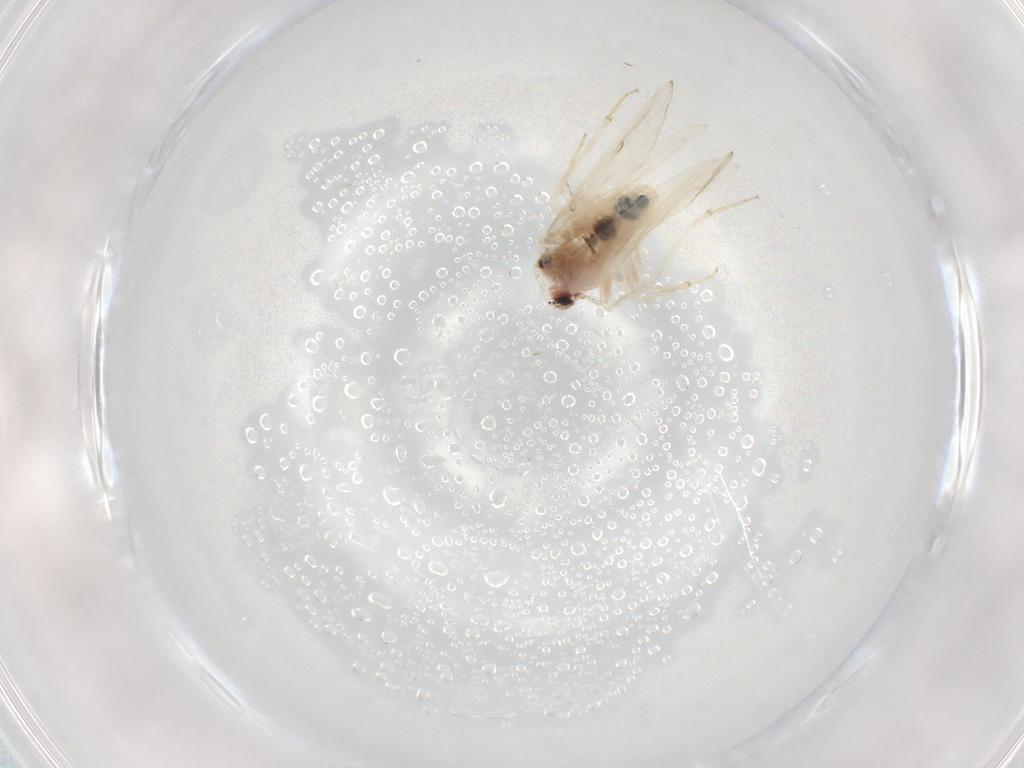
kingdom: Animalia
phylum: Arthropoda
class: Insecta
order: Psocodea
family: Lepidopsocidae
